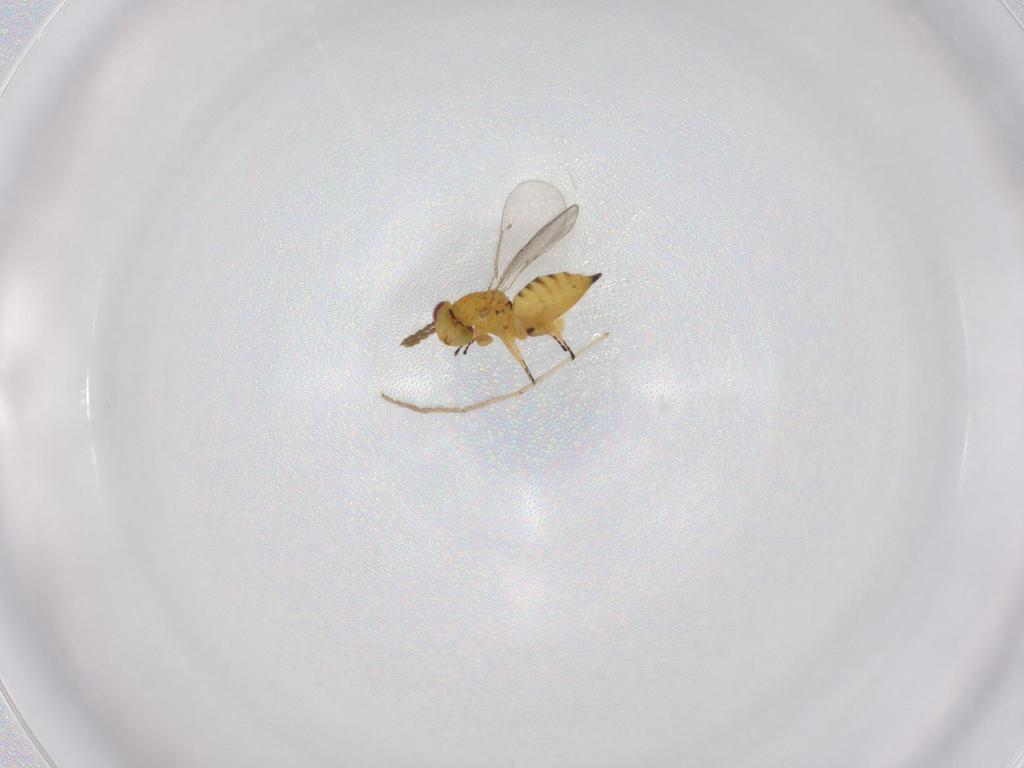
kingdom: Animalia
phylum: Arthropoda
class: Insecta
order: Hymenoptera
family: Eulophidae
